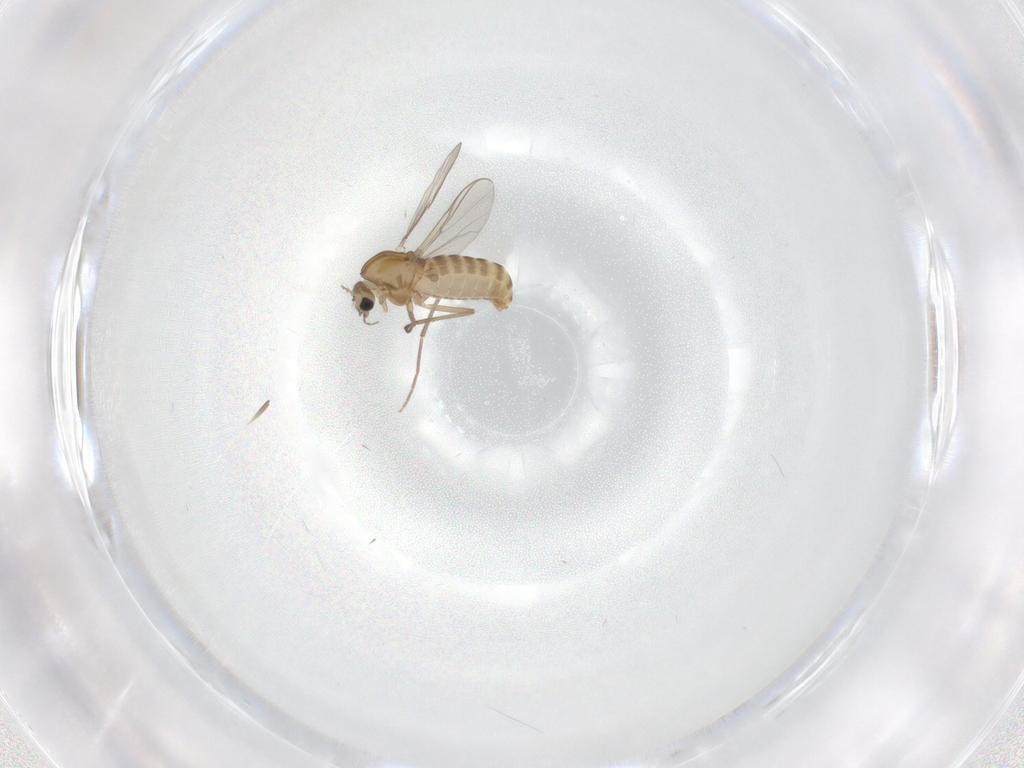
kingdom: Animalia
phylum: Arthropoda
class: Insecta
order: Diptera
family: Chironomidae
